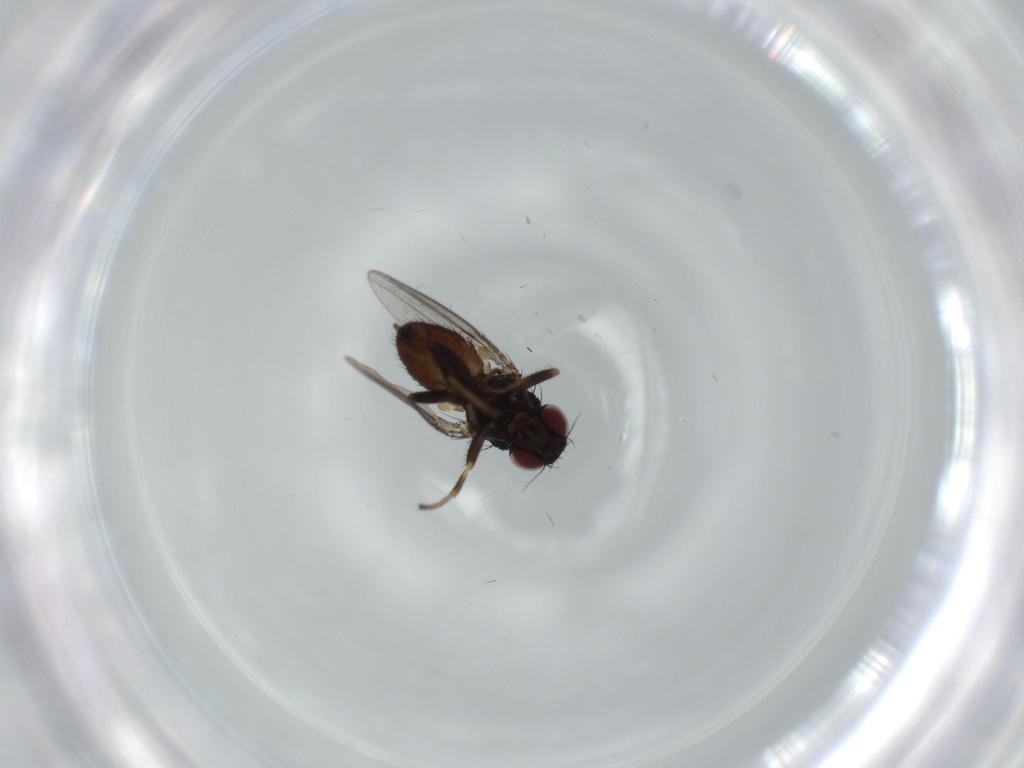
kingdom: Animalia
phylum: Arthropoda
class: Insecta
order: Diptera
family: Milichiidae
